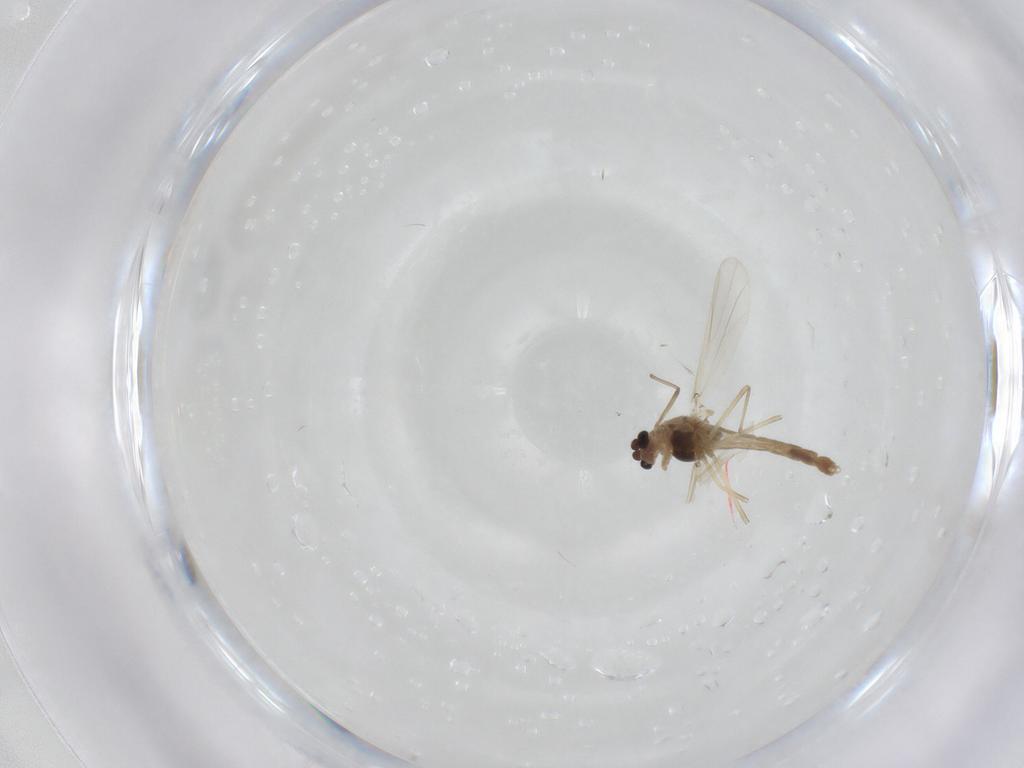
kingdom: Animalia
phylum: Arthropoda
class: Insecta
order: Diptera
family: Chironomidae
